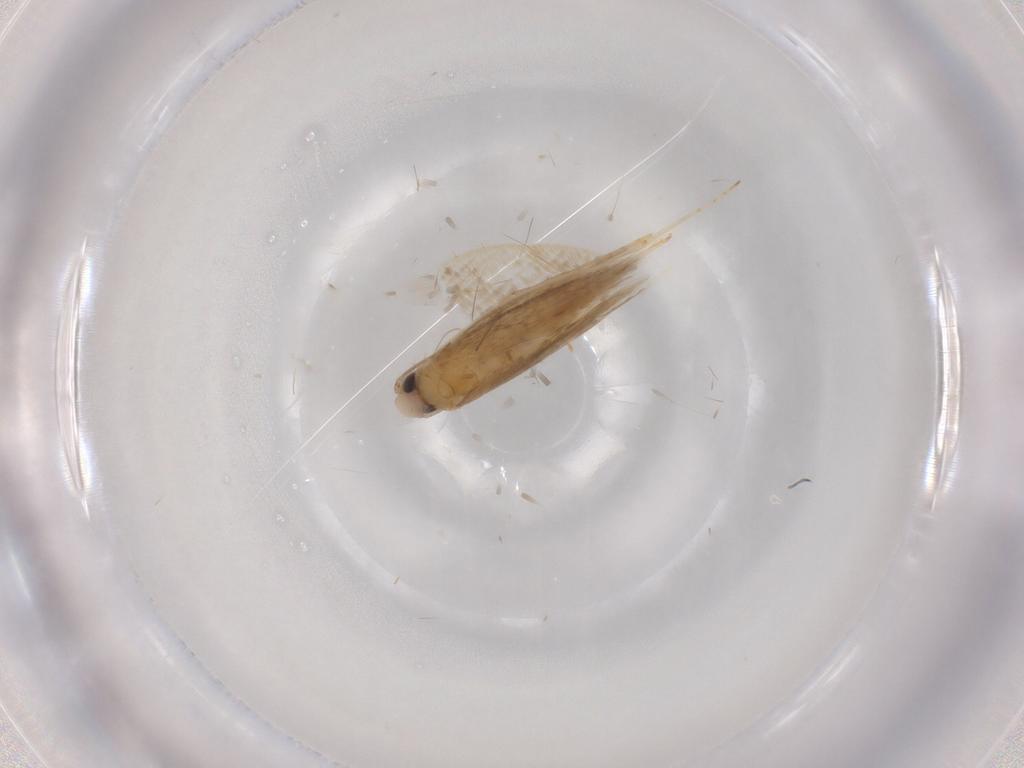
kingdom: Animalia
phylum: Arthropoda
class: Insecta
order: Lepidoptera
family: Tischeriidae
